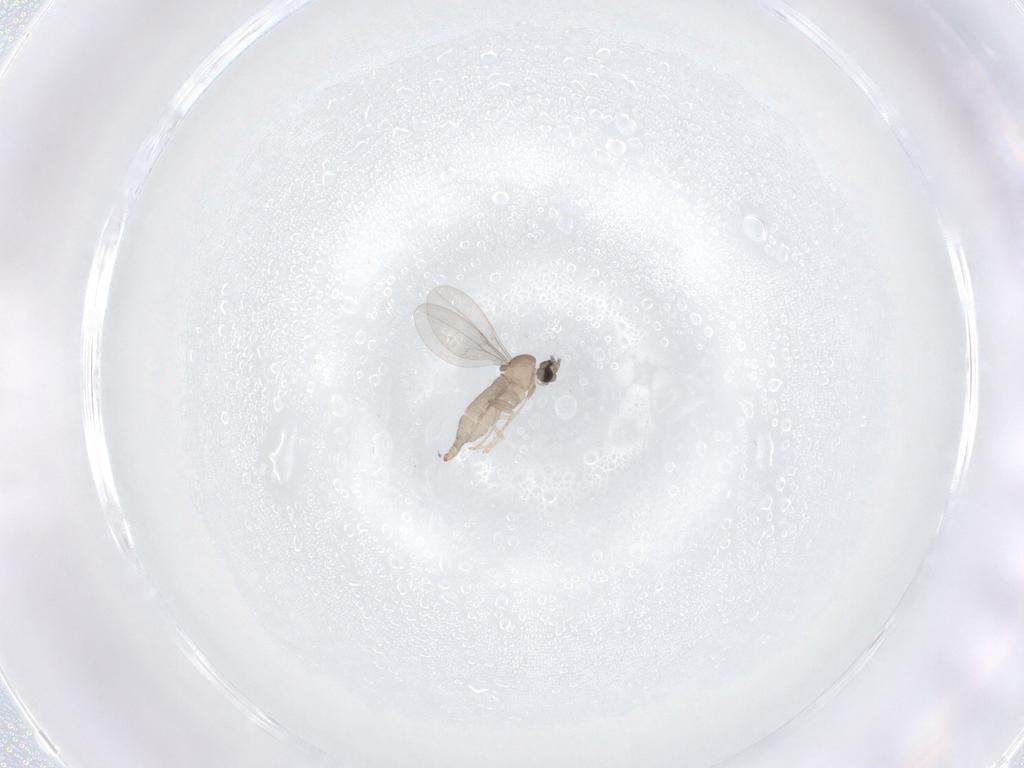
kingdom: Animalia
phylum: Arthropoda
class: Insecta
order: Diptera
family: Cecidomyiidae
